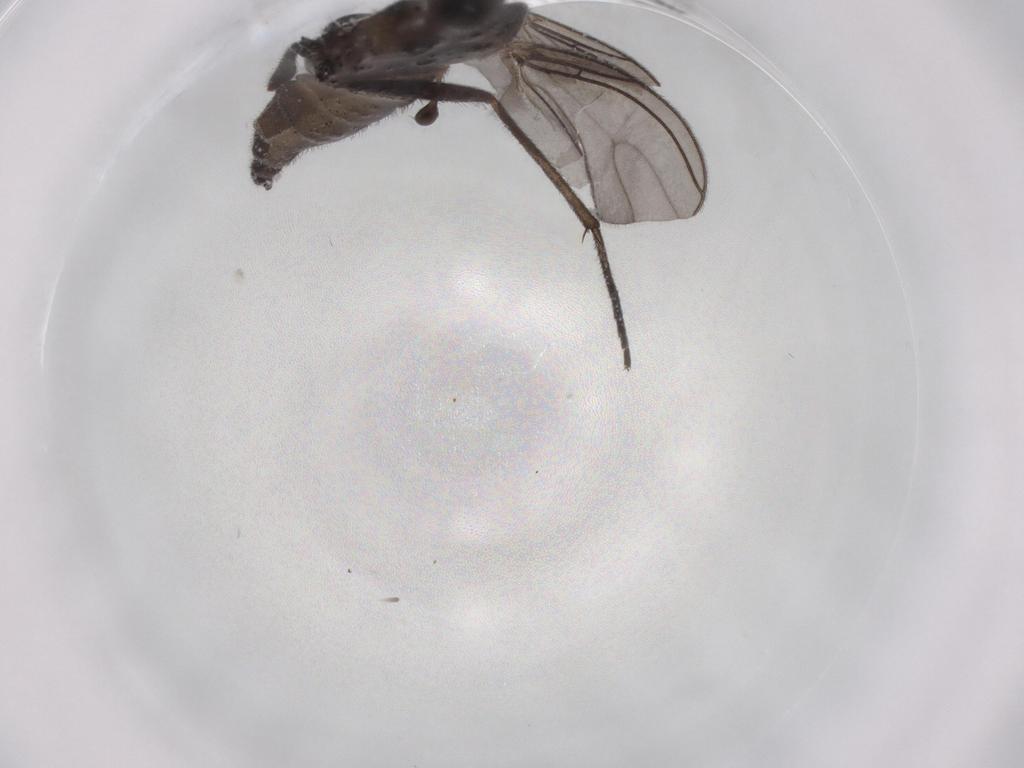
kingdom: Animalia
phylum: Arthropoda
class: Insecta
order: Diptera
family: Sciaridae
